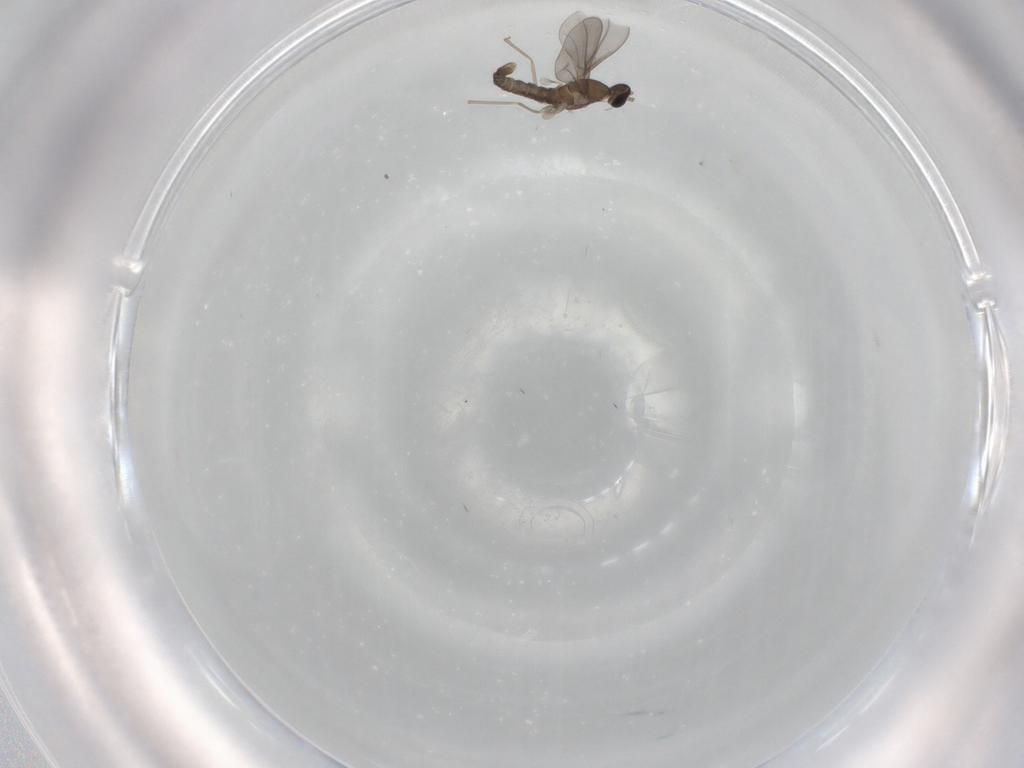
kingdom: Animalia
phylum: Arthropoda
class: Insecta
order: Diptera
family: Cecidomyiidae
